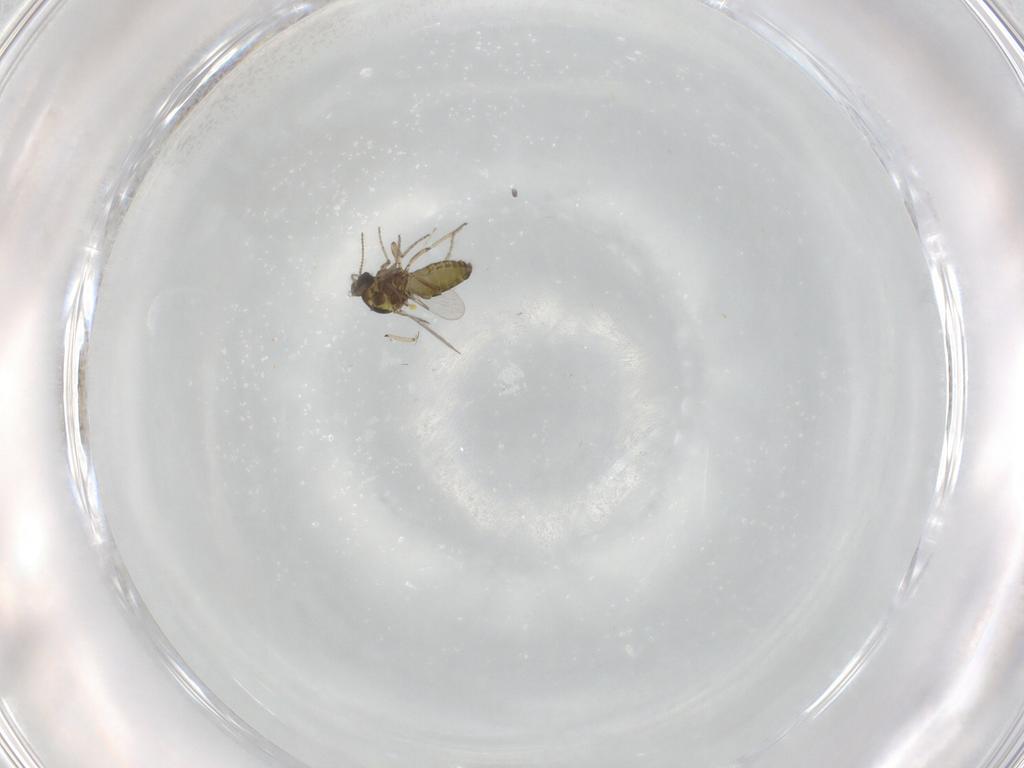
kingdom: Animalia
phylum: Arthropoda
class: Insecta
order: Diptera
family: Ceratopogonidae
